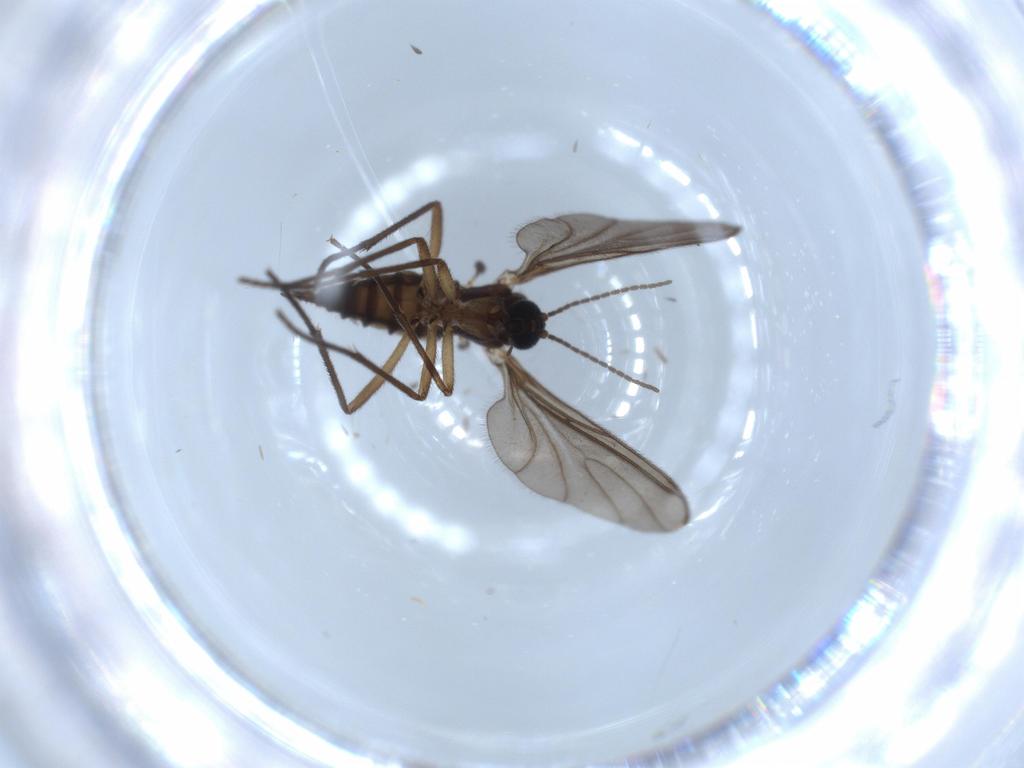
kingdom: Animalia
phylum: Arthropoda
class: Insecta
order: Diptera
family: Sciaridae
